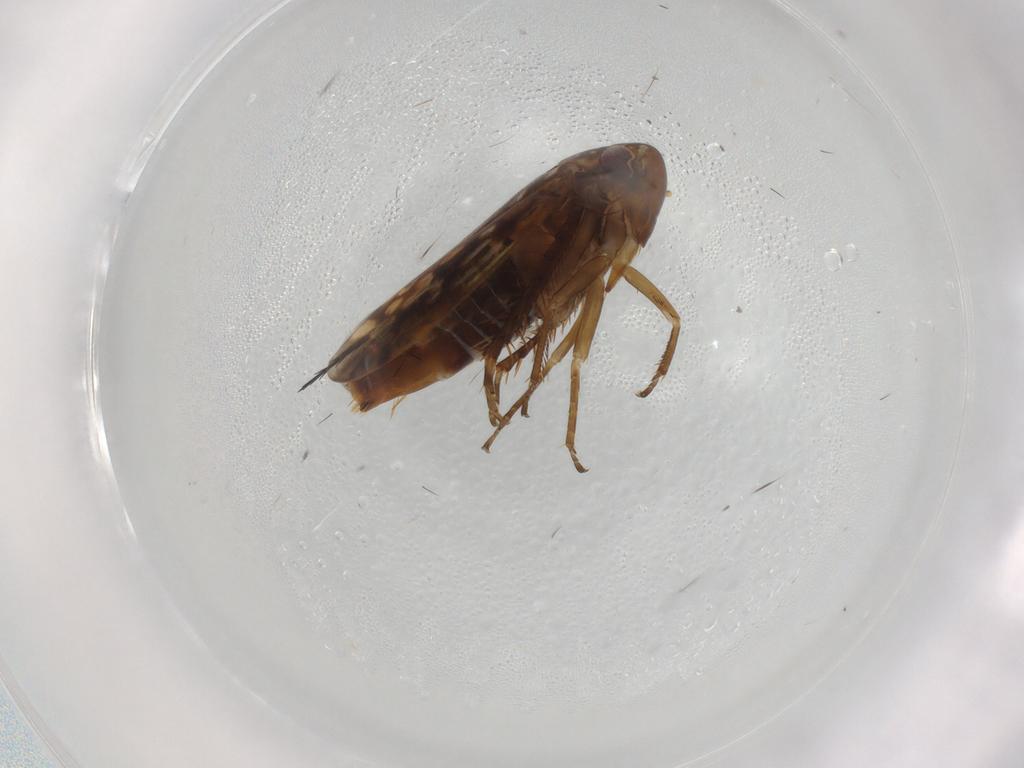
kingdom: Animalia
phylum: Arthropoda
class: Insecta
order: Hemiptera
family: Cicadellidae
